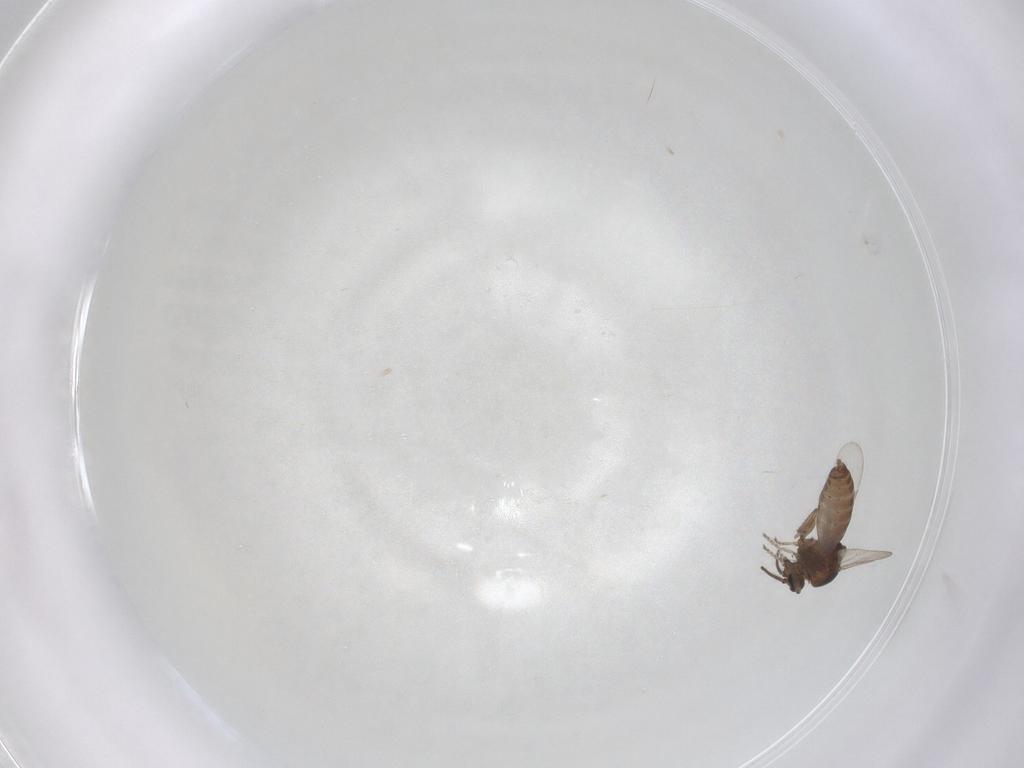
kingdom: Animalia
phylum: Arthropoda
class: Insecta
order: Diptera
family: Ceratopogonidae
